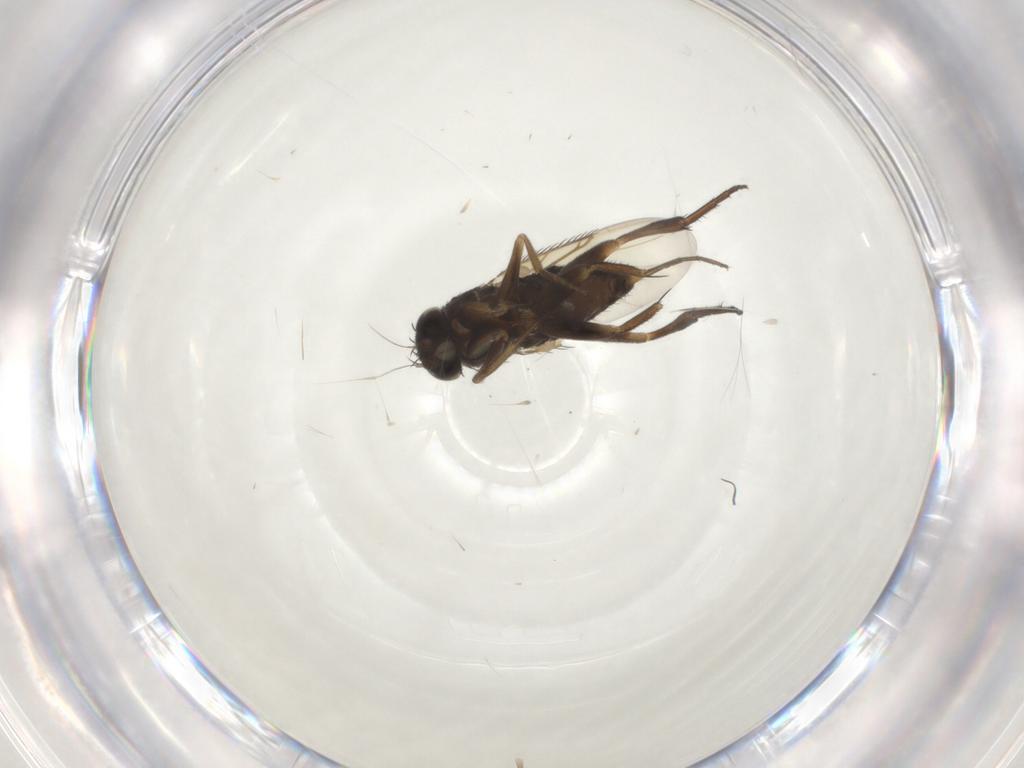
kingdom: Animalia
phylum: Arthropoda
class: Insecta
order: Diptera
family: Phoridae
